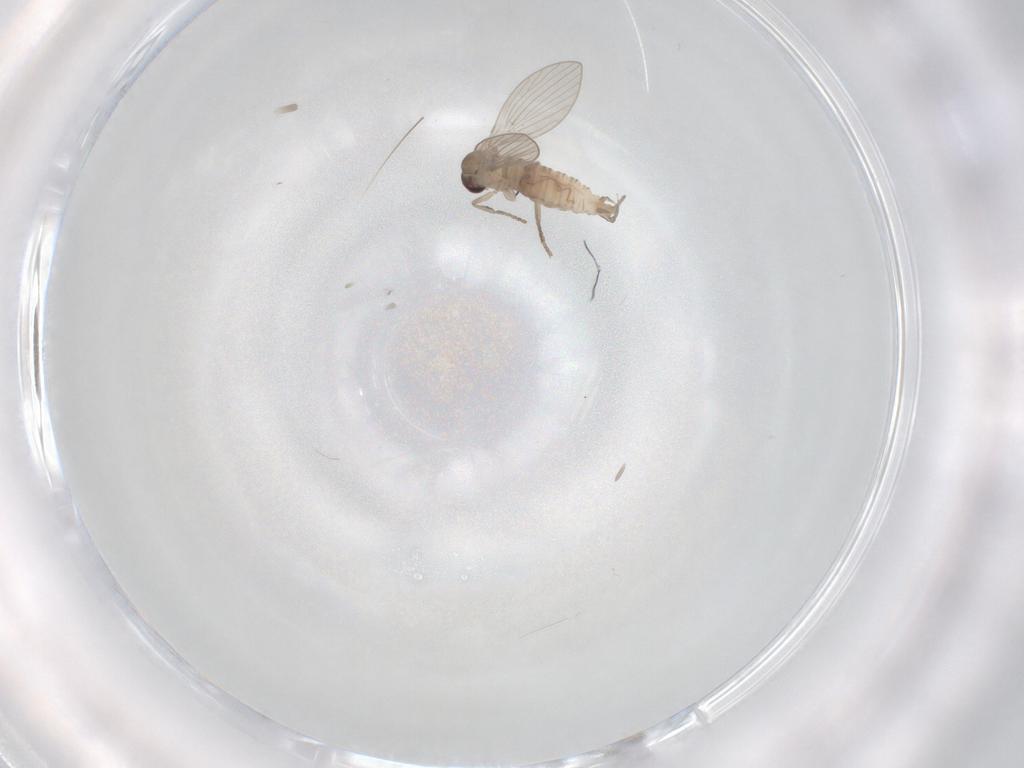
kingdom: Animalia
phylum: Arthropoda
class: Insecta
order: Diptera
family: Psychodidae
